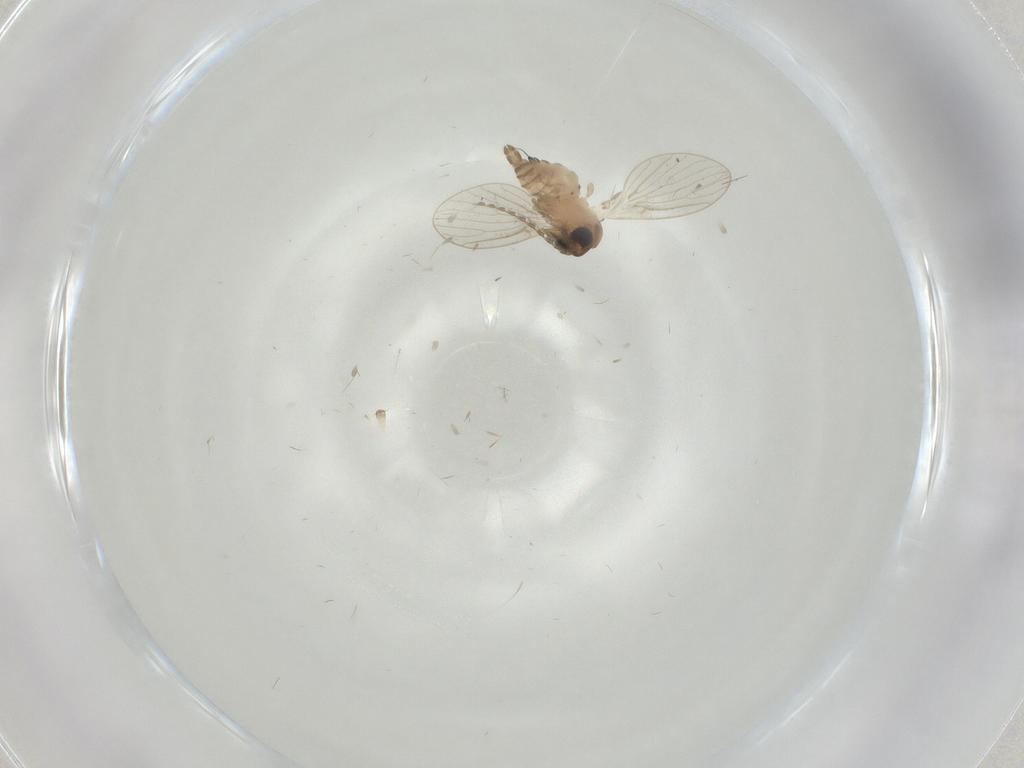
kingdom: Animalia
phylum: Arthropoda
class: Insecta
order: Diptera
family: Psychodidae
